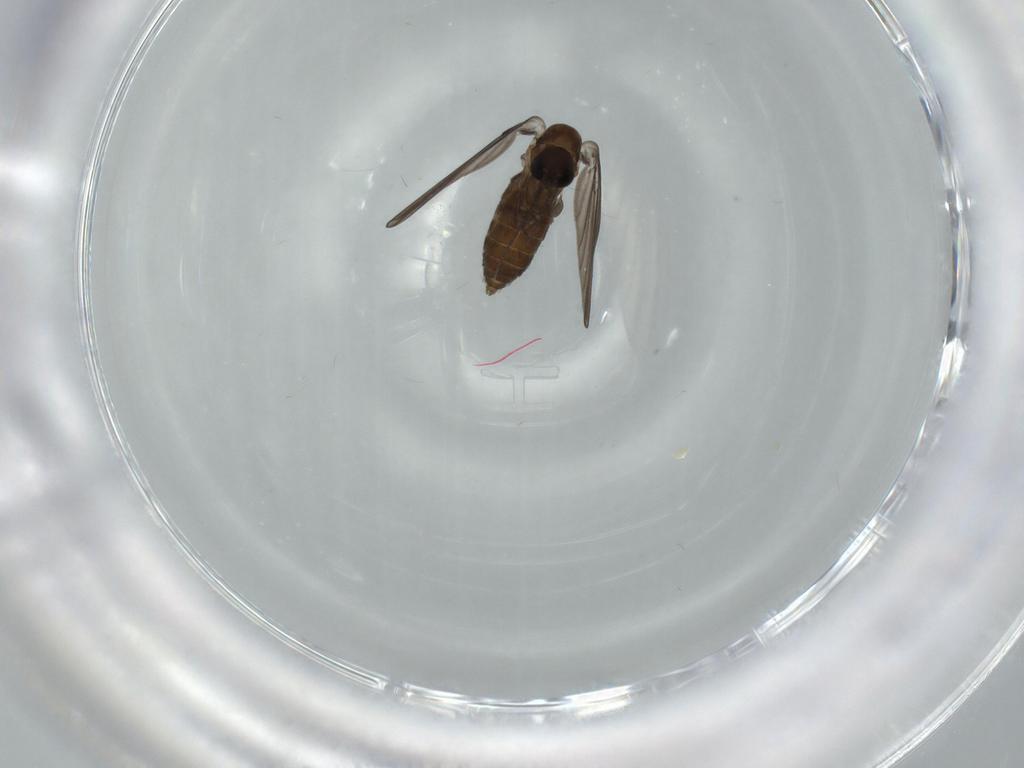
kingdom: Animalia
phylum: Arthropoda
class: Insecta
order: Diptera
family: Psychodidae
